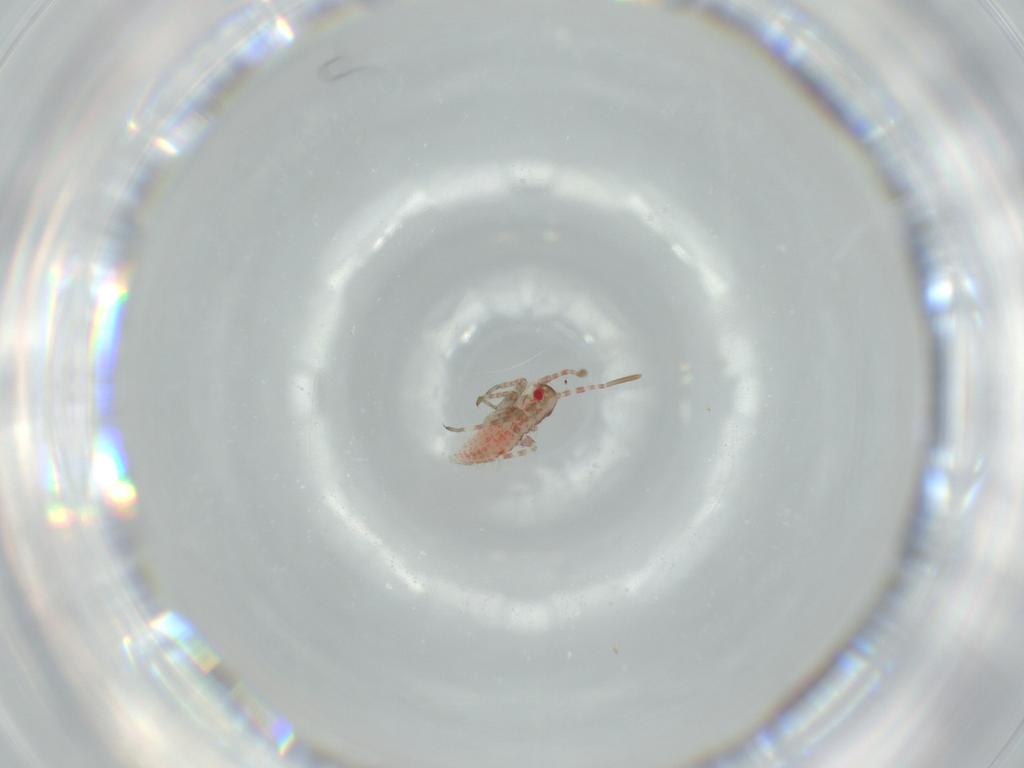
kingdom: Animalia
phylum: Arthropoda
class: Insecta
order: Hemiptera
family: Miridae
